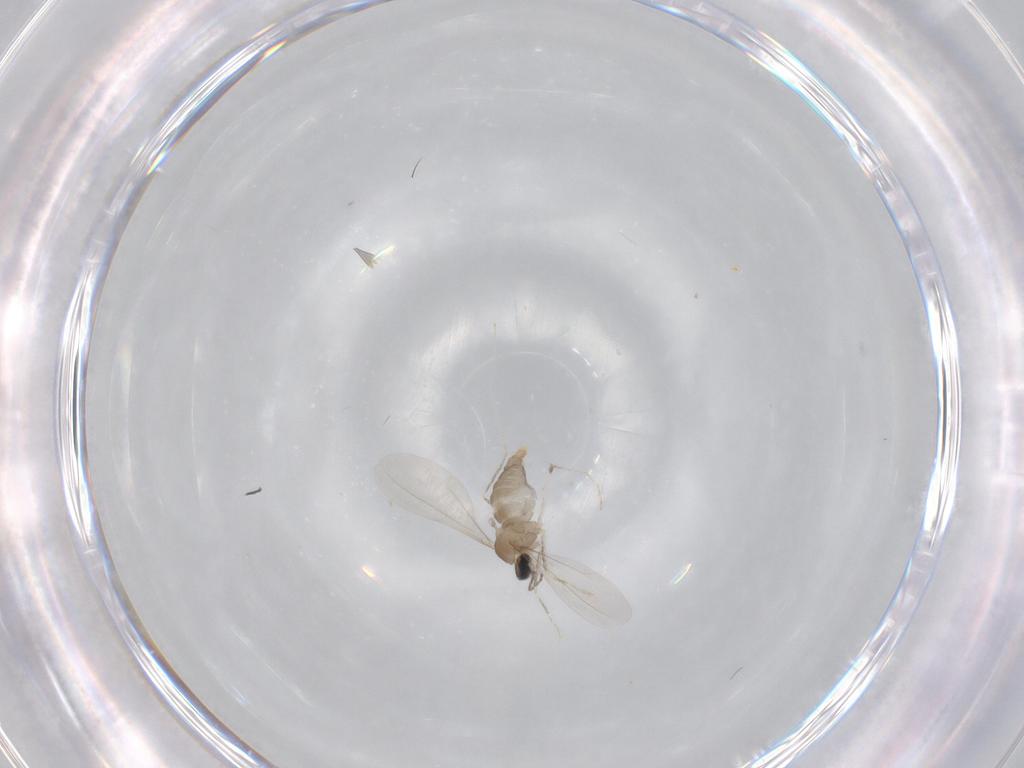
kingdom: Animalia
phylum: Arthropoda
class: Insecta
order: Diptera
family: Cecidomyiidae
